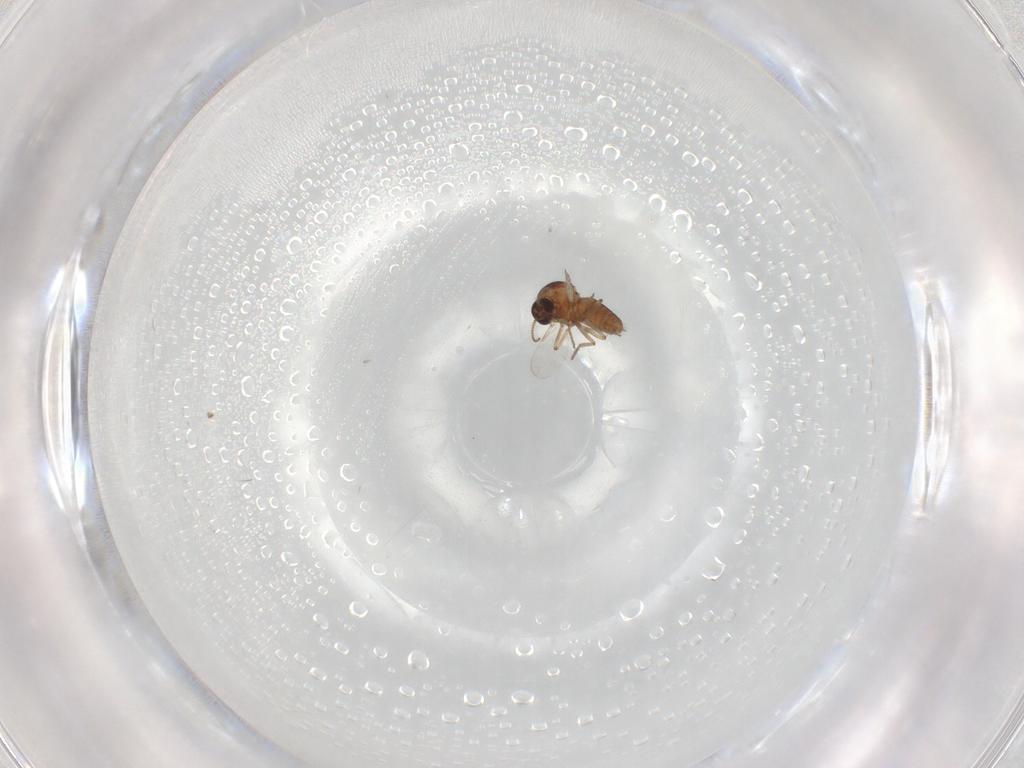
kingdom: Animalia
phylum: Arthropoda
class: Insecta
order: Diptera
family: Ceratopogonidae
